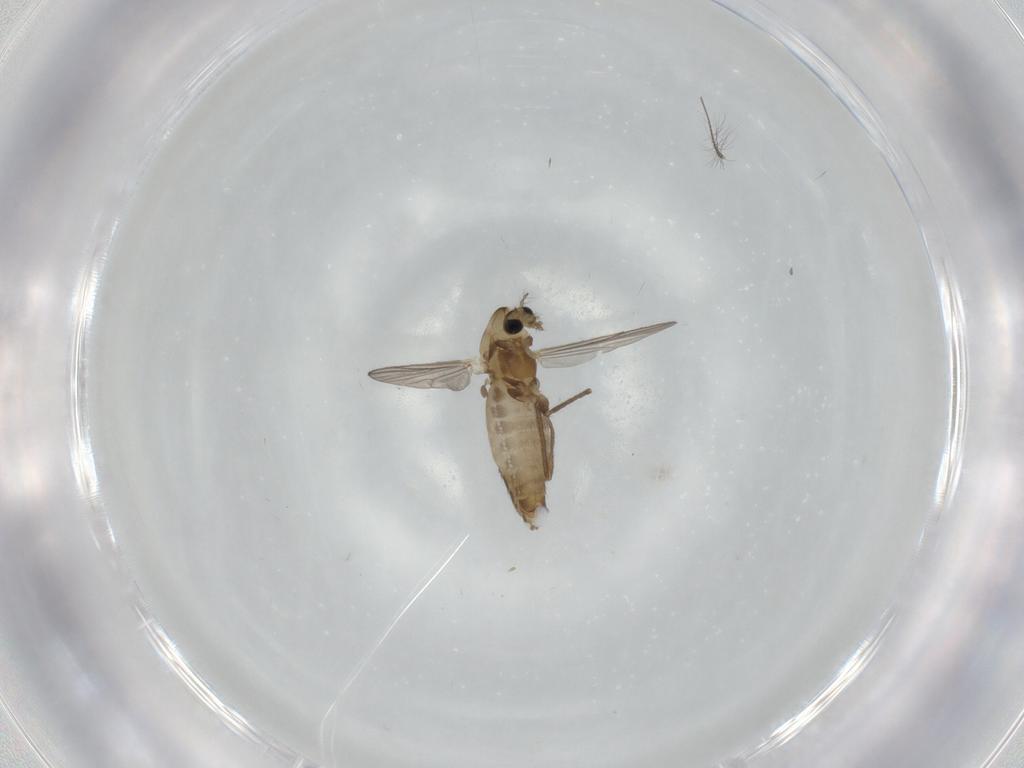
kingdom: Animalia
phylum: Arthropoda
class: Insecta
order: Diptera
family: Chironomidae
